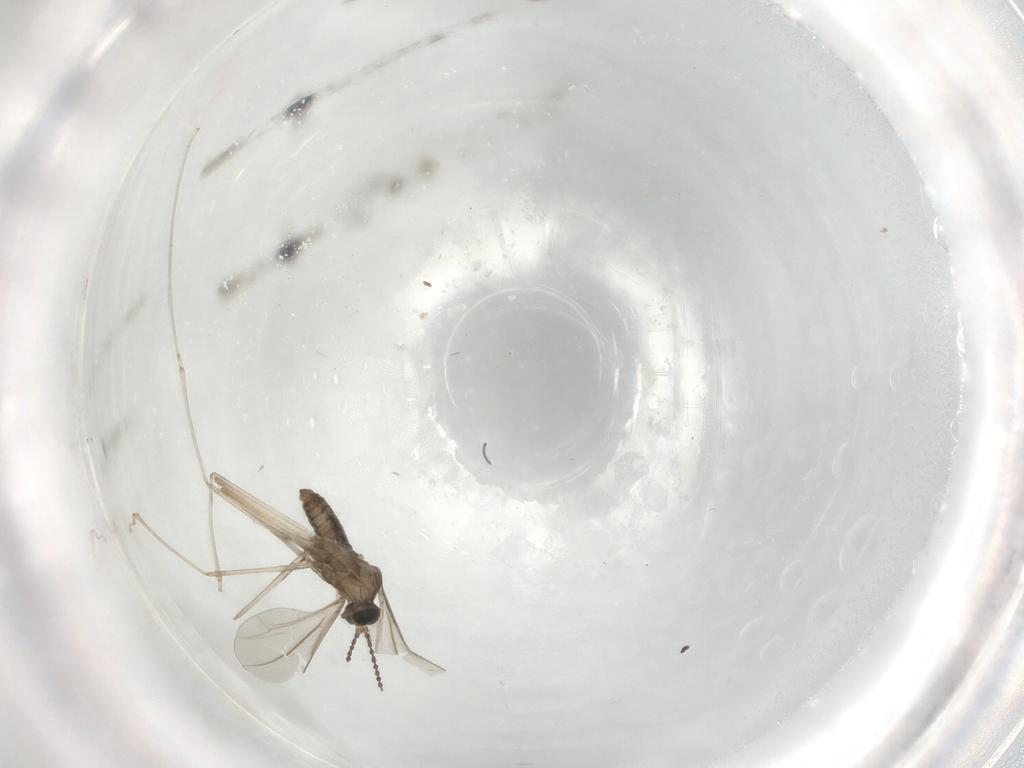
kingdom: Animalia
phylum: Arthropoda
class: Insecta
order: Diptera
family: Cecidomyiidae
